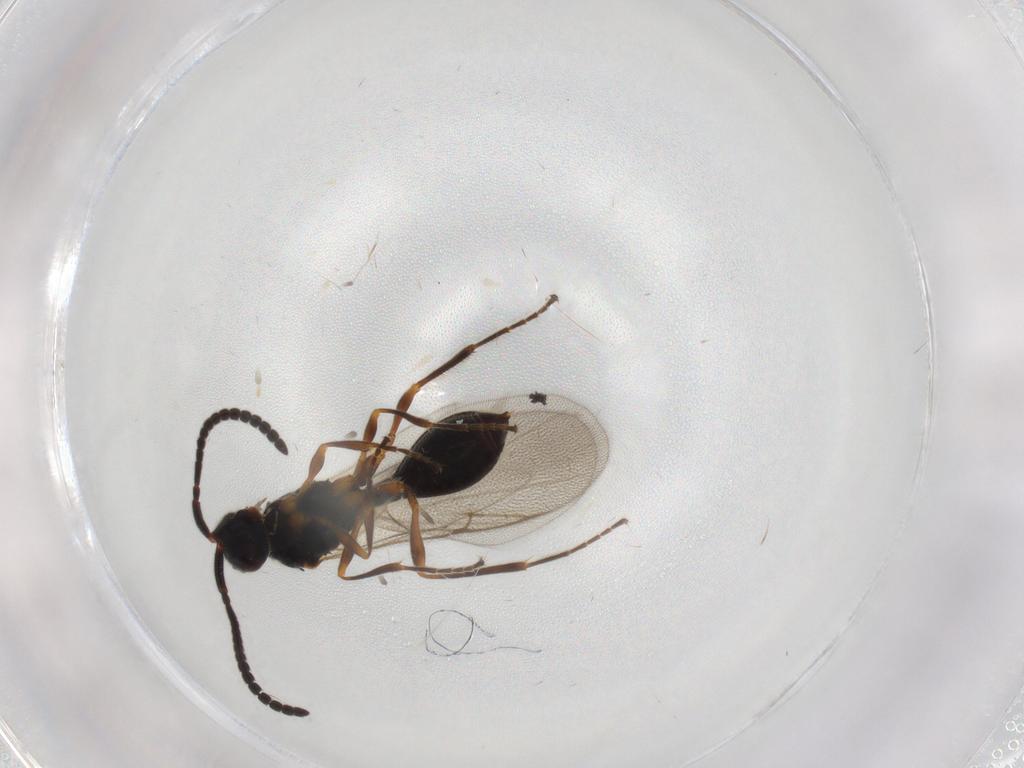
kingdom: Animalia
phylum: Arthropoda
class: Insecta
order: Hymenoptera
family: Diapriidae
